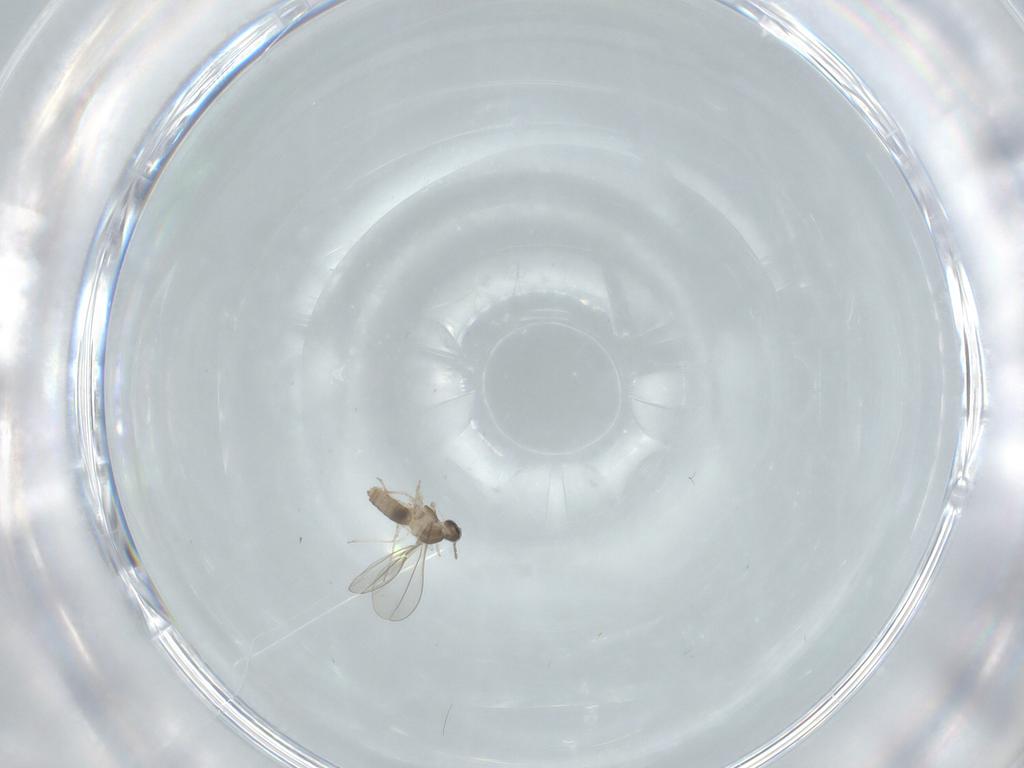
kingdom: Animalia
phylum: Arthropoda
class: Insecta
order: Diptera
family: Cecidomyiidae
